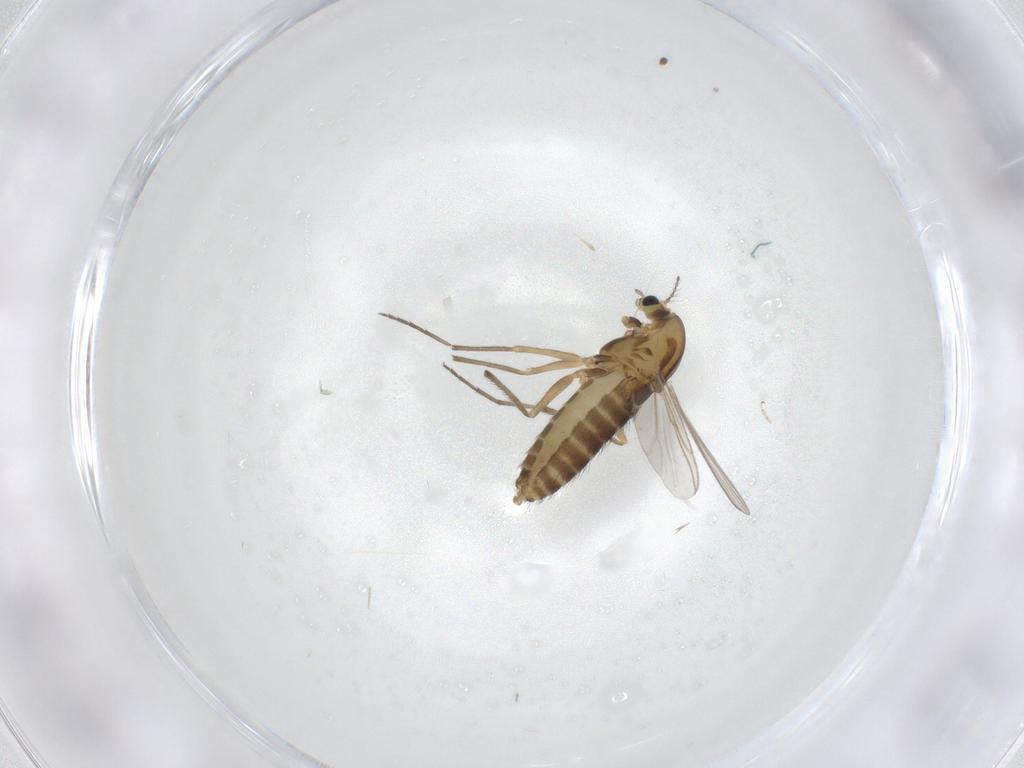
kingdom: Animalia
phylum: Arthropoda
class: Insecta
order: Diptera
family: Chironomidae
